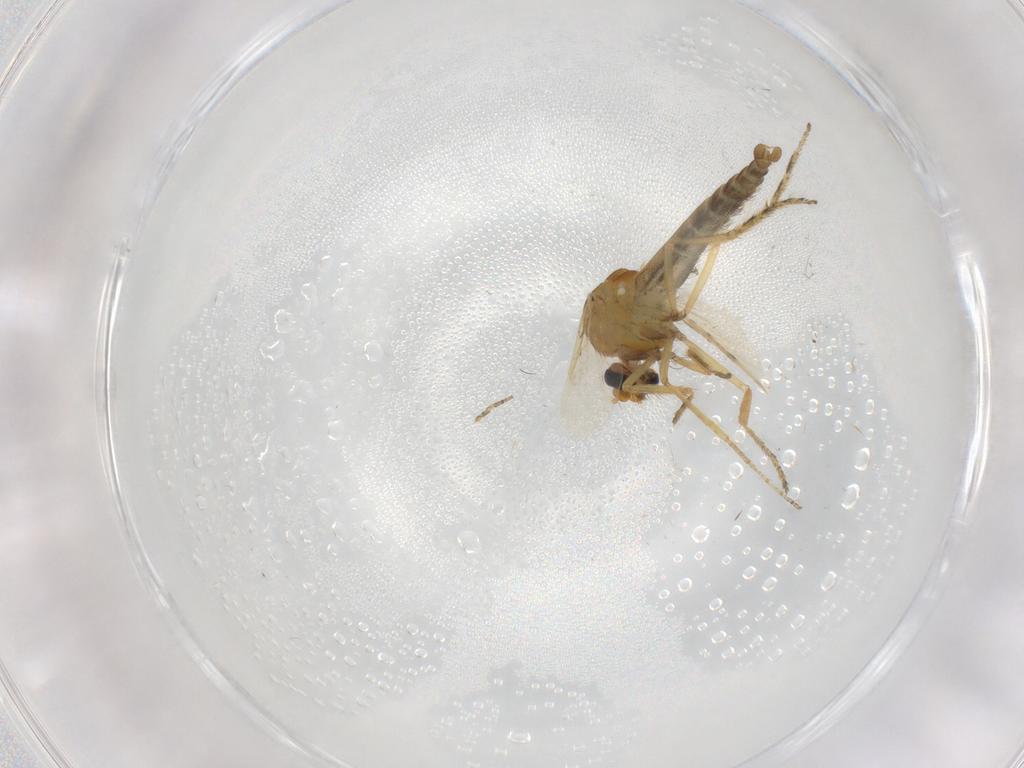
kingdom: Animalia
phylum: Arthropoda
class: Insecta
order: Diptera
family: Ceratopogonidae
